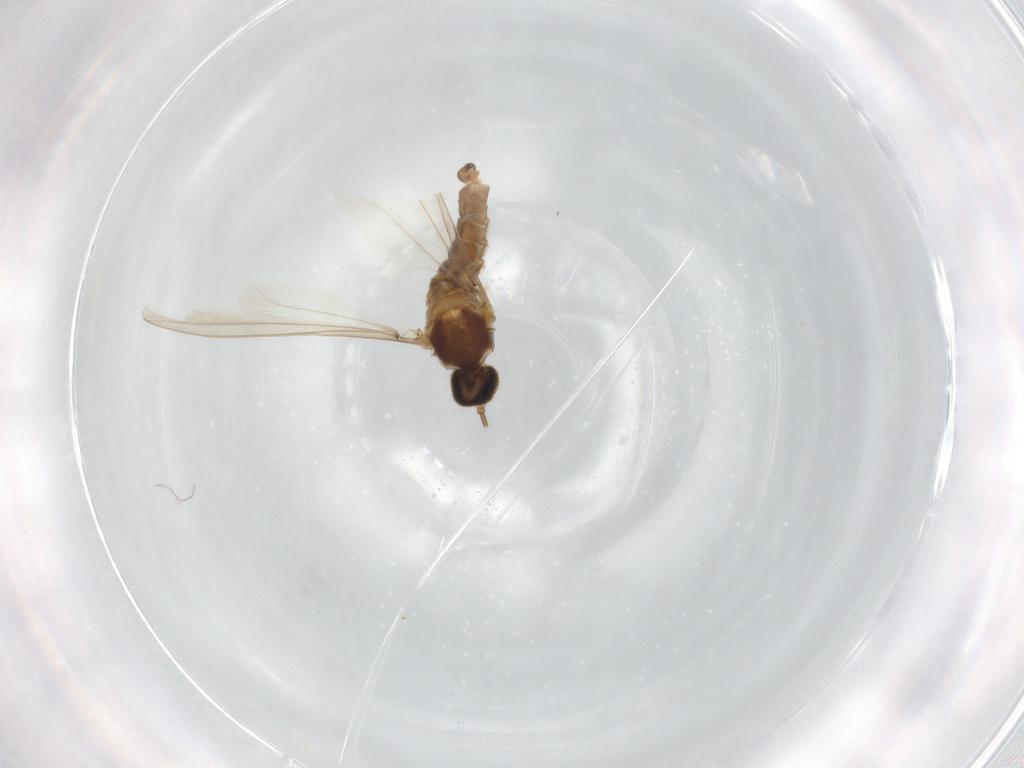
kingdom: Animalia
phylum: Arthropoda
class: Insecta
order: Diptera
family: Cecidomyiidae
